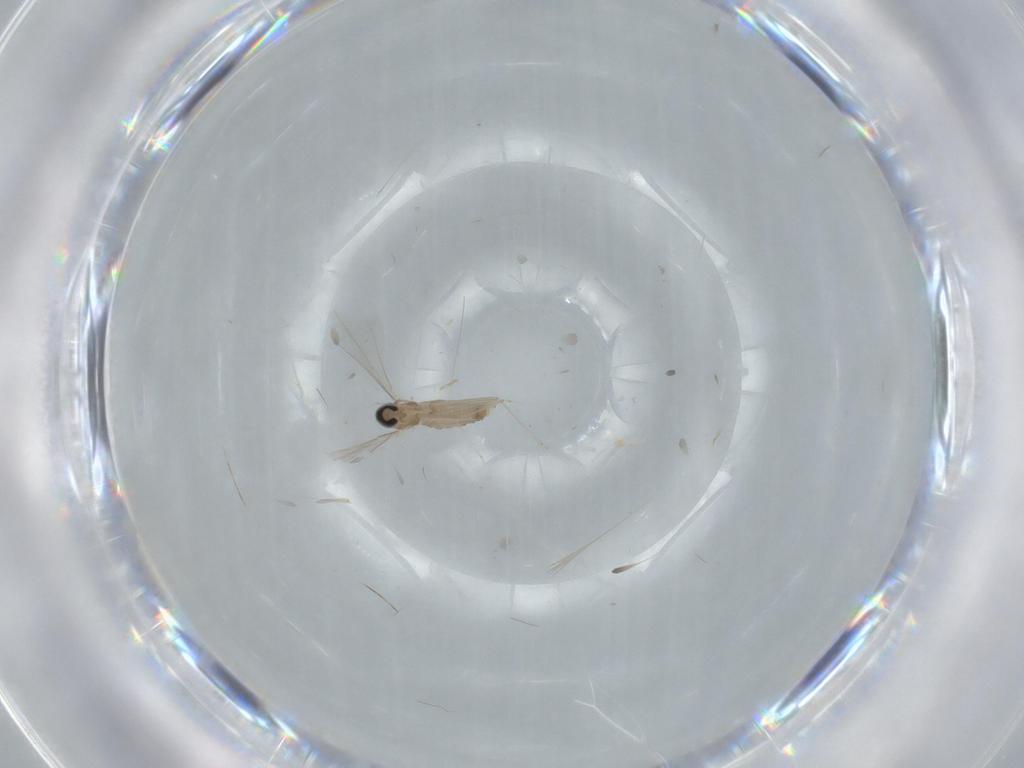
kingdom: Animalia
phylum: Arthropoda
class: Insecta
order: Diptera
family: Cecidomyiidae
